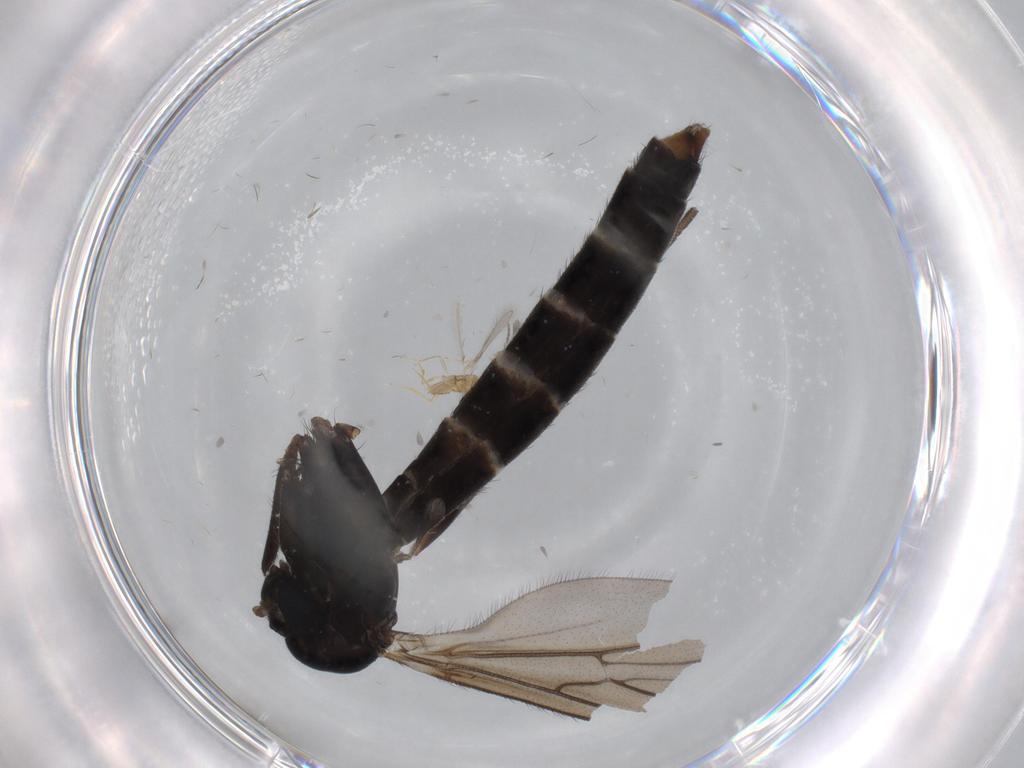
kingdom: Animalia
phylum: Arthropoda
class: Insecta
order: Diptera
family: Ditomyiidae
